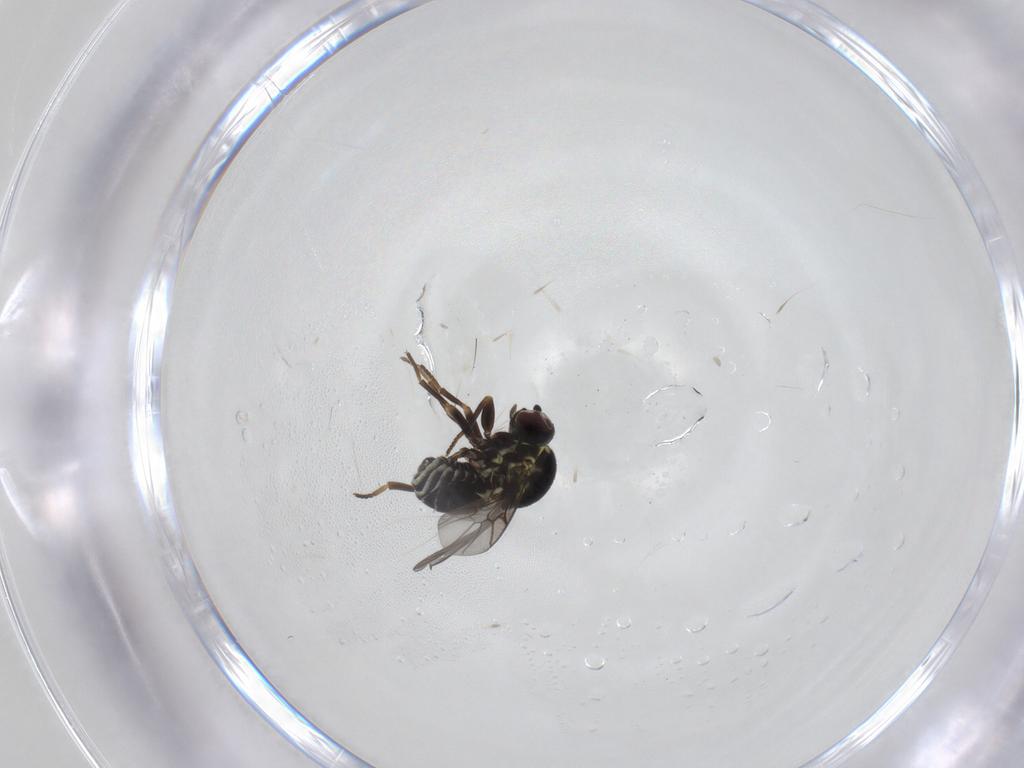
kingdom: Animalia
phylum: Arthropoda
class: Insecta
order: Diptera
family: Bombyliidae
